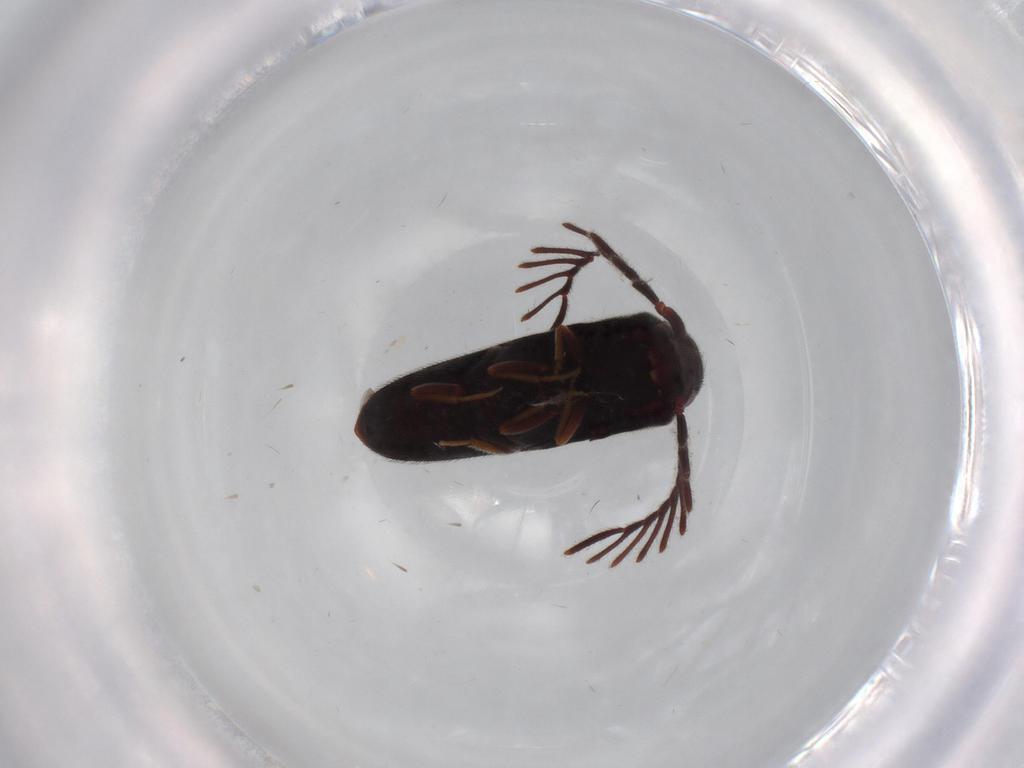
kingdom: Animalia
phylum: Arthropoda
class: Insecta
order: Coleoptera
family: Eucnemidae
